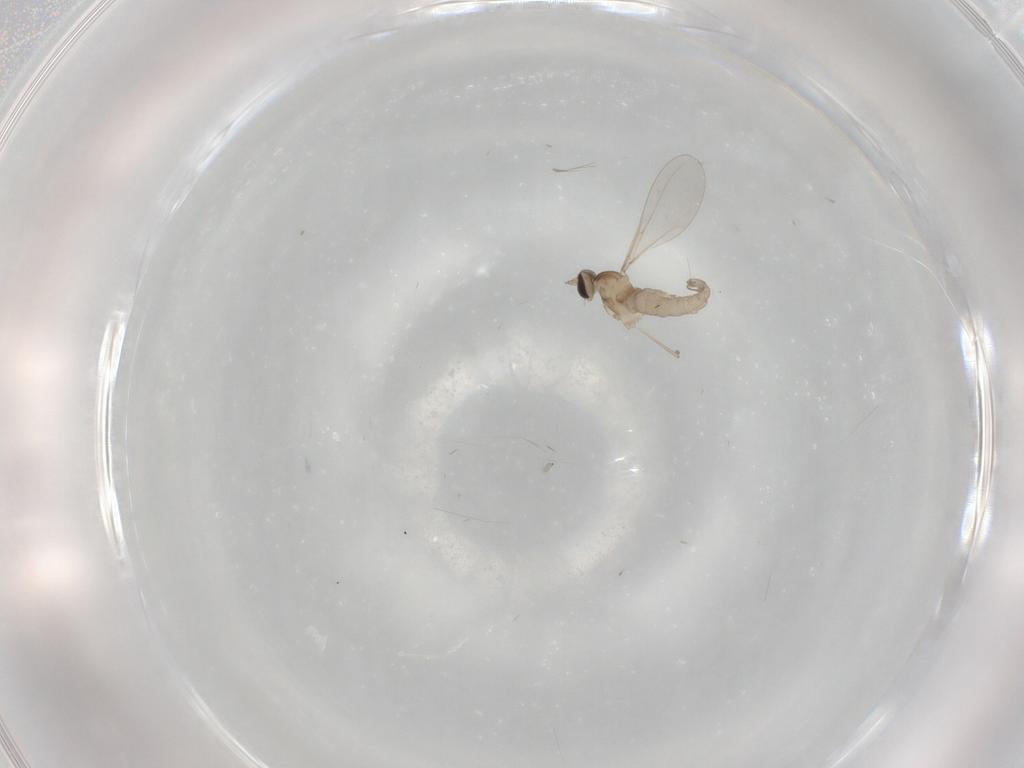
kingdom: Animalia
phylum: Arthropoda
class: Insecta
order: Diptera
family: Cecidomyiidae
